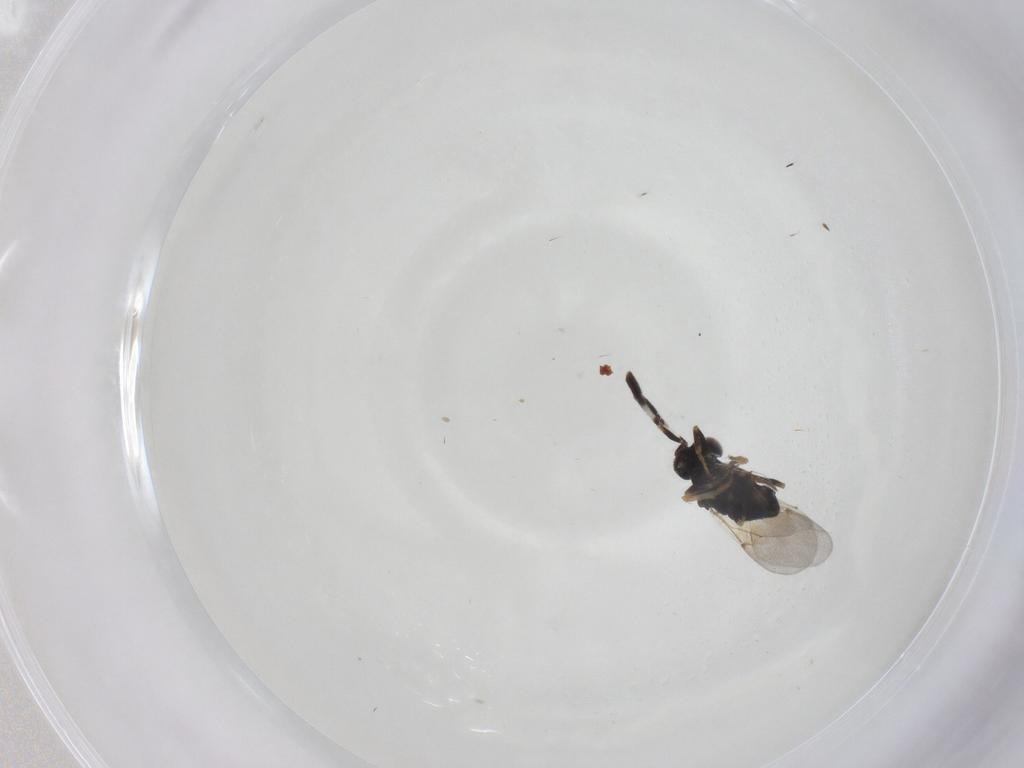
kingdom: Animalia
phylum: Arthropoda
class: Insecta
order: Hymenoptera
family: Encyrtidae
